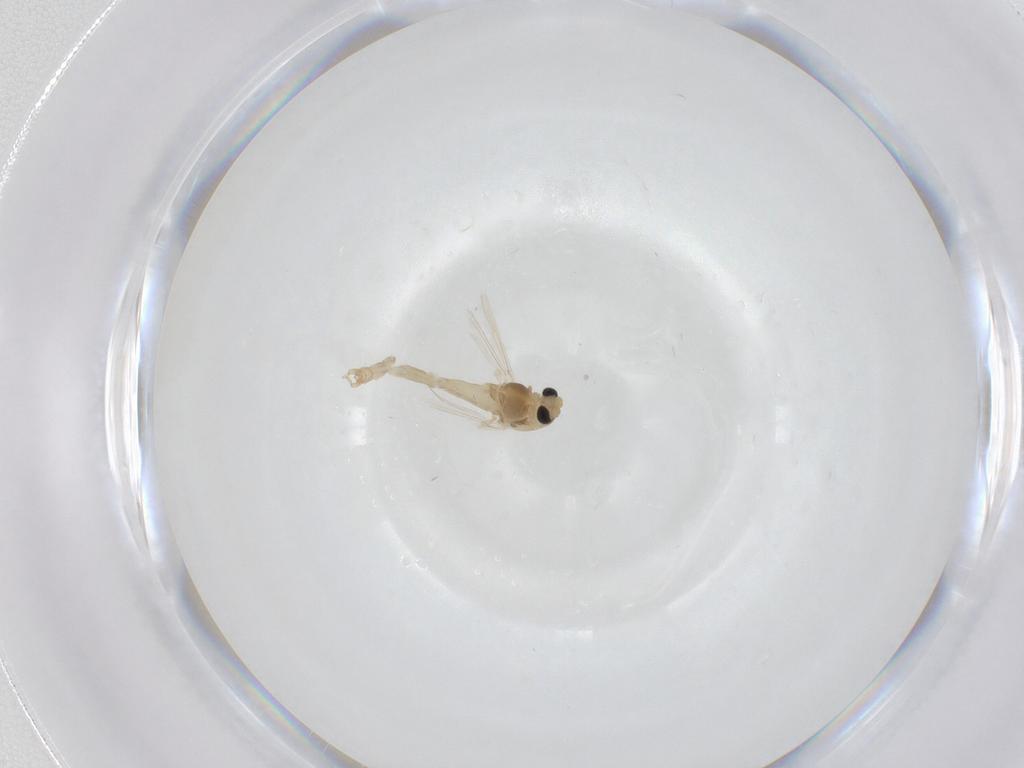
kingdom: Animalia
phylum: Arthropoda
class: Insecta
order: Diptera
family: Chironomidae
